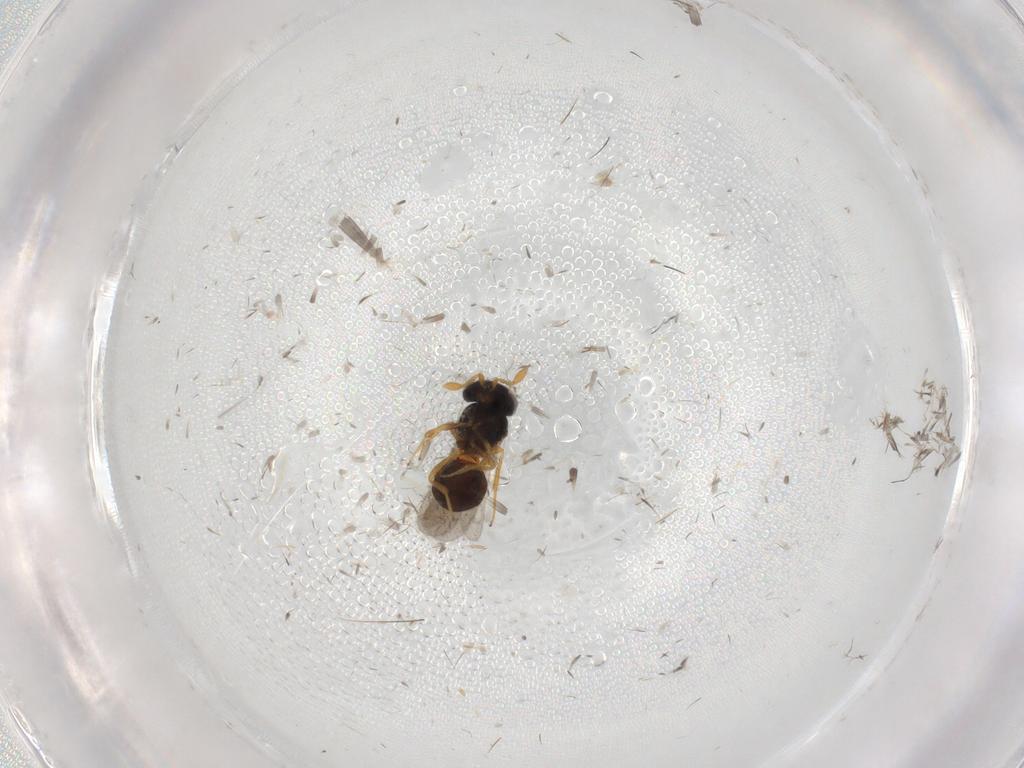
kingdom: Animalia
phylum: Arthropoda
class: Insecta
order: Hymenoptera
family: Scelionidae
